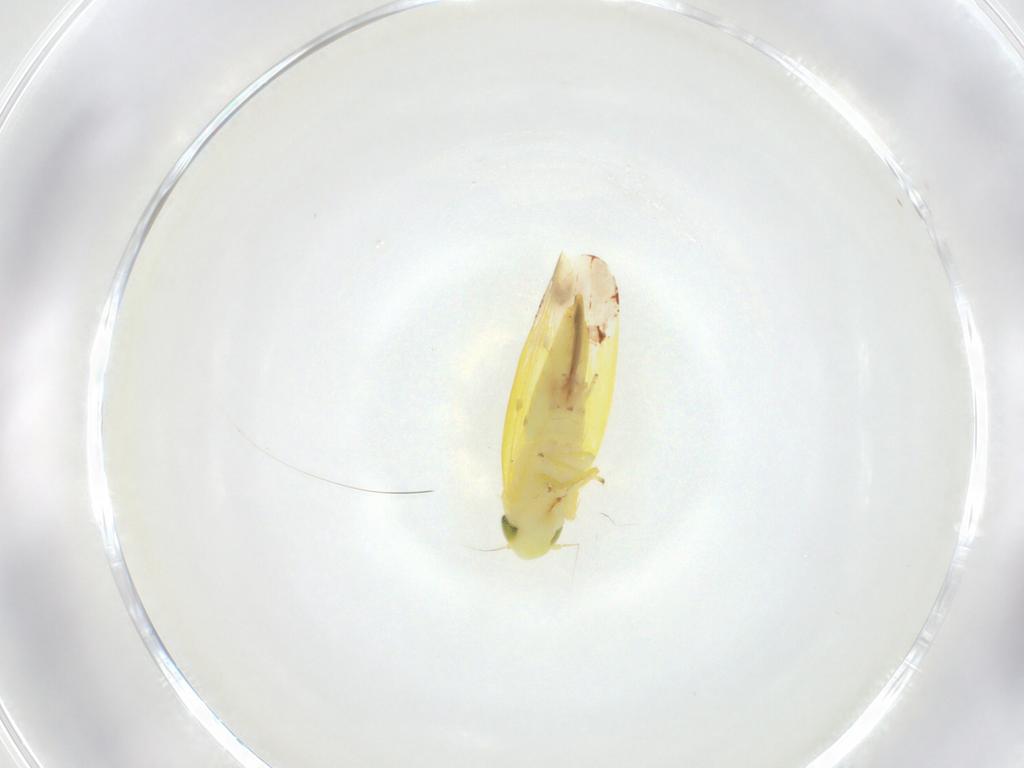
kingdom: Animalia
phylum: Arthropoda
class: Insecta
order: Hemiptera
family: Cicadellidae
